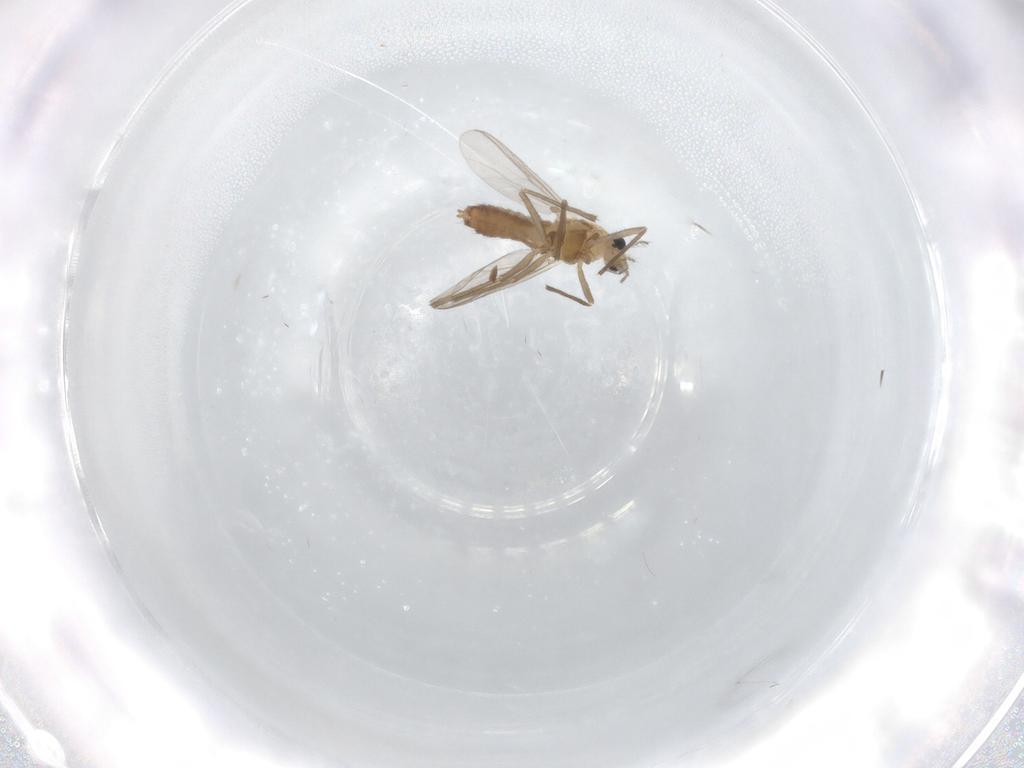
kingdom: Animalia
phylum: Arthropoda
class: Insecta
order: Diptera
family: Chironomidae
